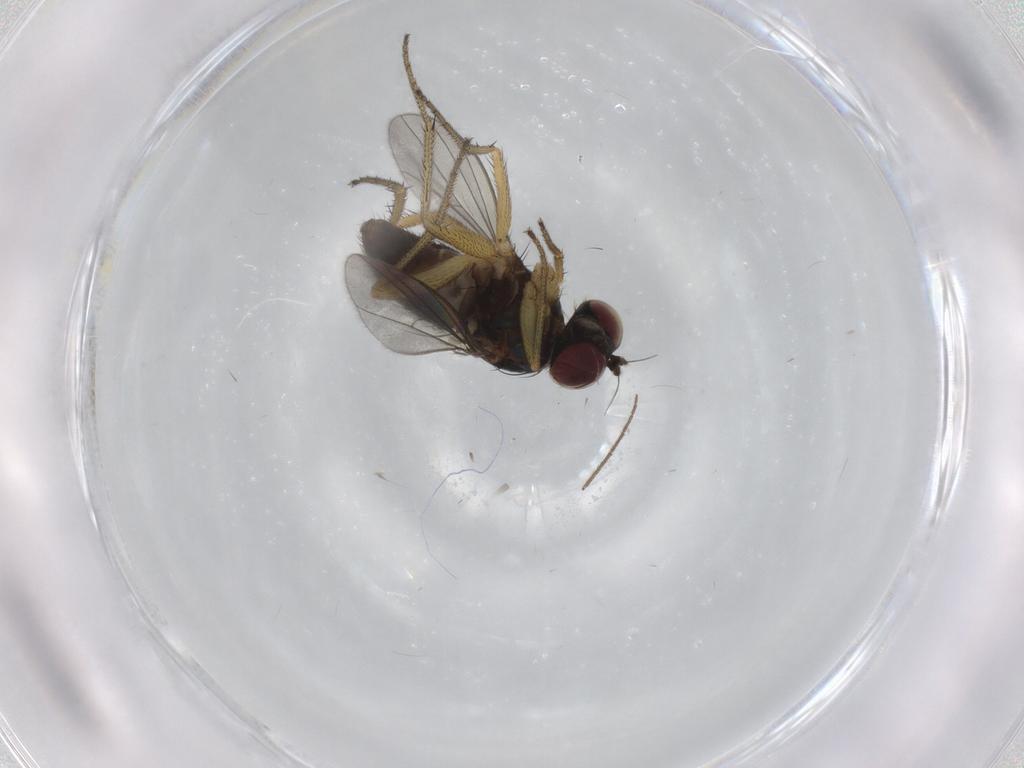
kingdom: Animalia
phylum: Arthropoda
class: Insecta
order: Diptera
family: Dolichopodidae
